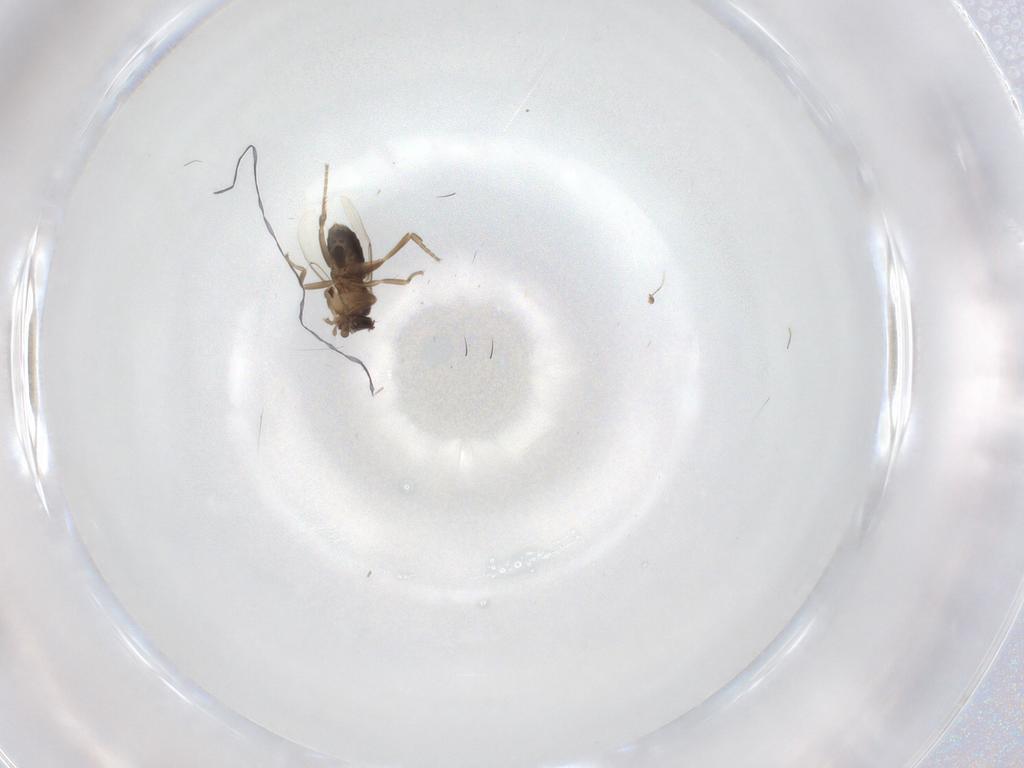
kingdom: Animalia
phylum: Arthropoda
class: Insecta
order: Diptera
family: Phoridae
